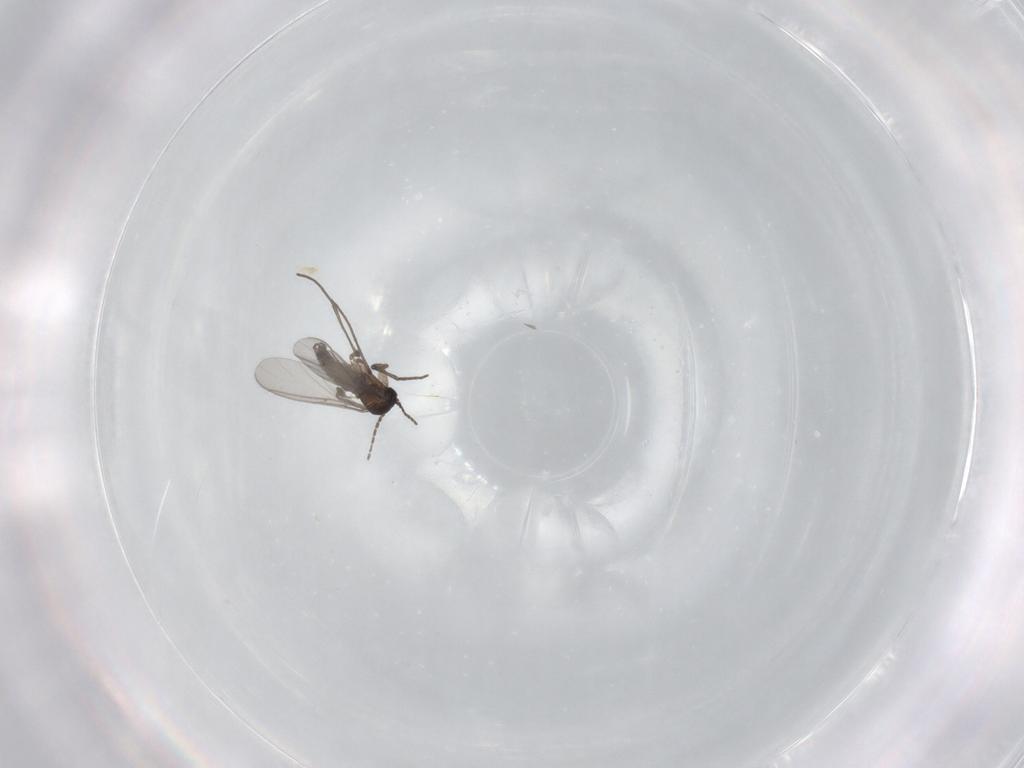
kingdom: Animalia
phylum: Arthropoda
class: Insecta
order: Diptera
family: Sciaridae
